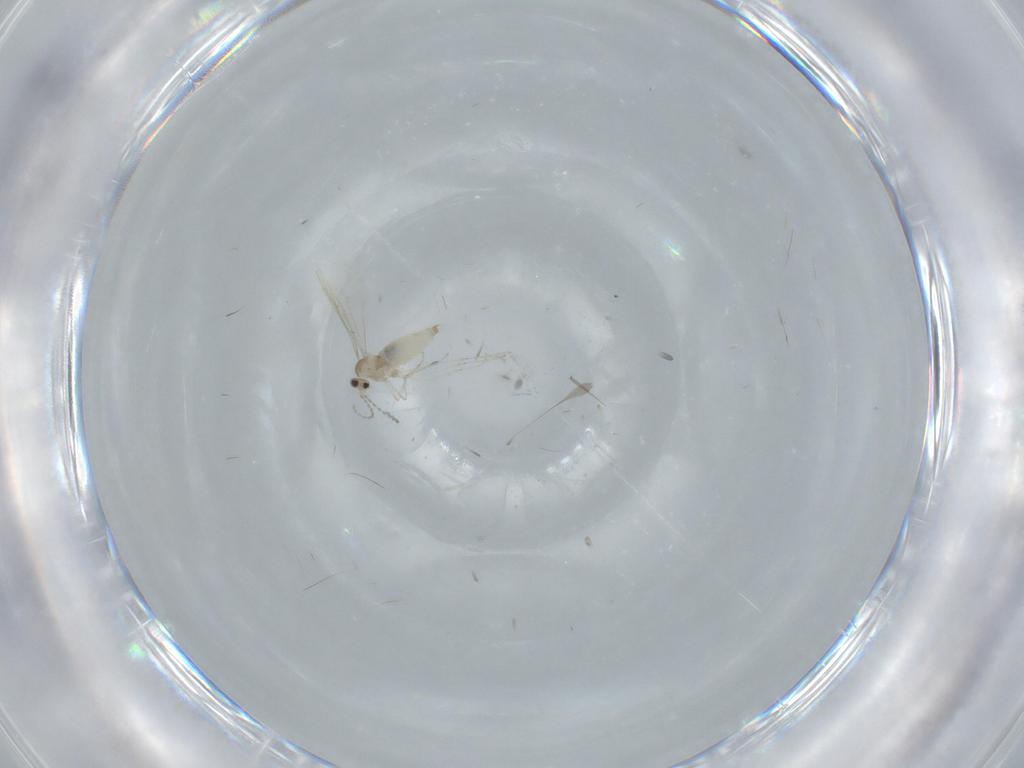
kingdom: Animalia
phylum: Arthropoda
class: Insecta
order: Diptera
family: Cecidomyiidae
